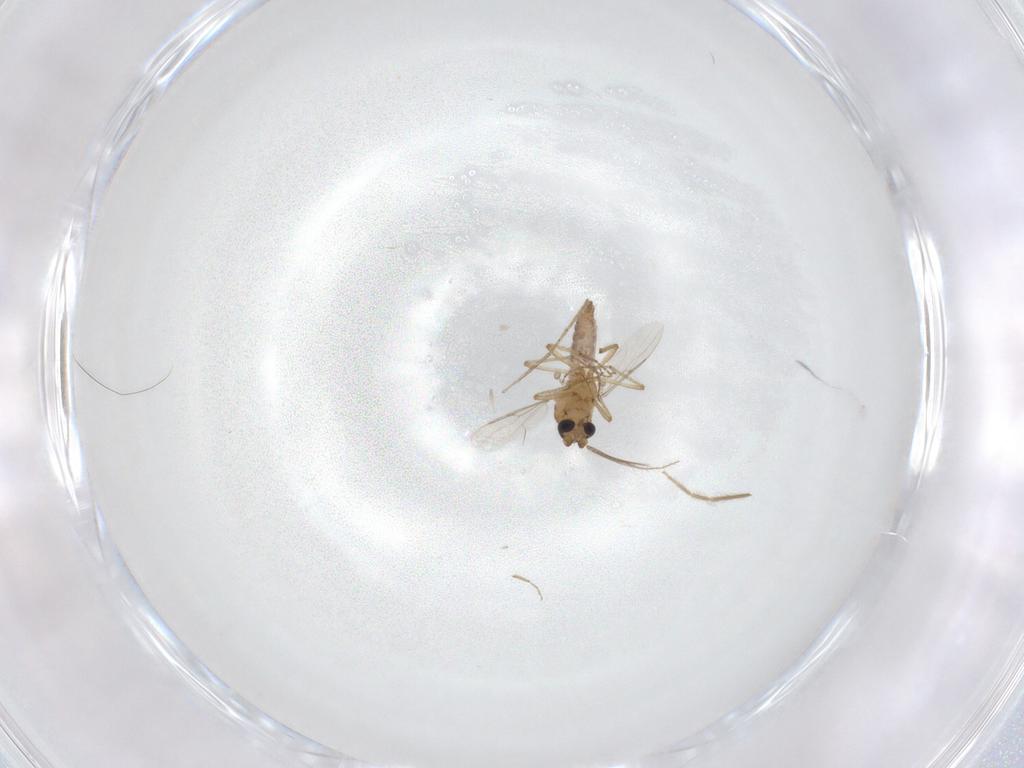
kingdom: Animalia
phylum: Arthropoda
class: Insecta
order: Diptera
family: Chironomidae
